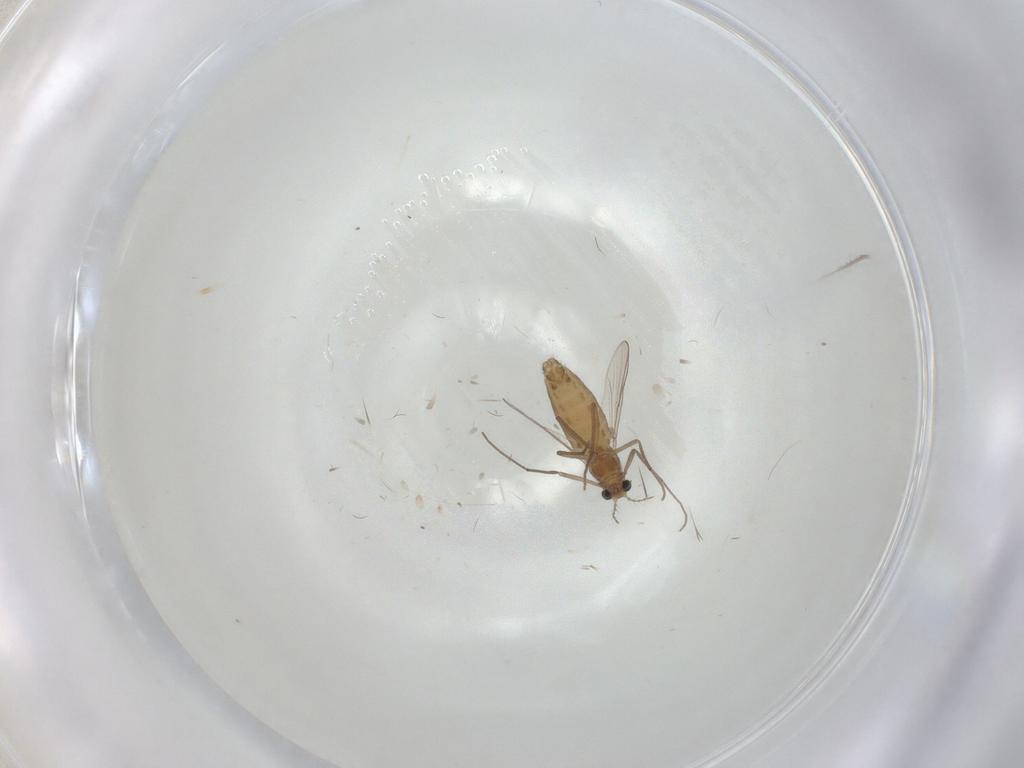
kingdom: Animalia
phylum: Arthropoda
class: Insecta
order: Diptera
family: Chironomidae
